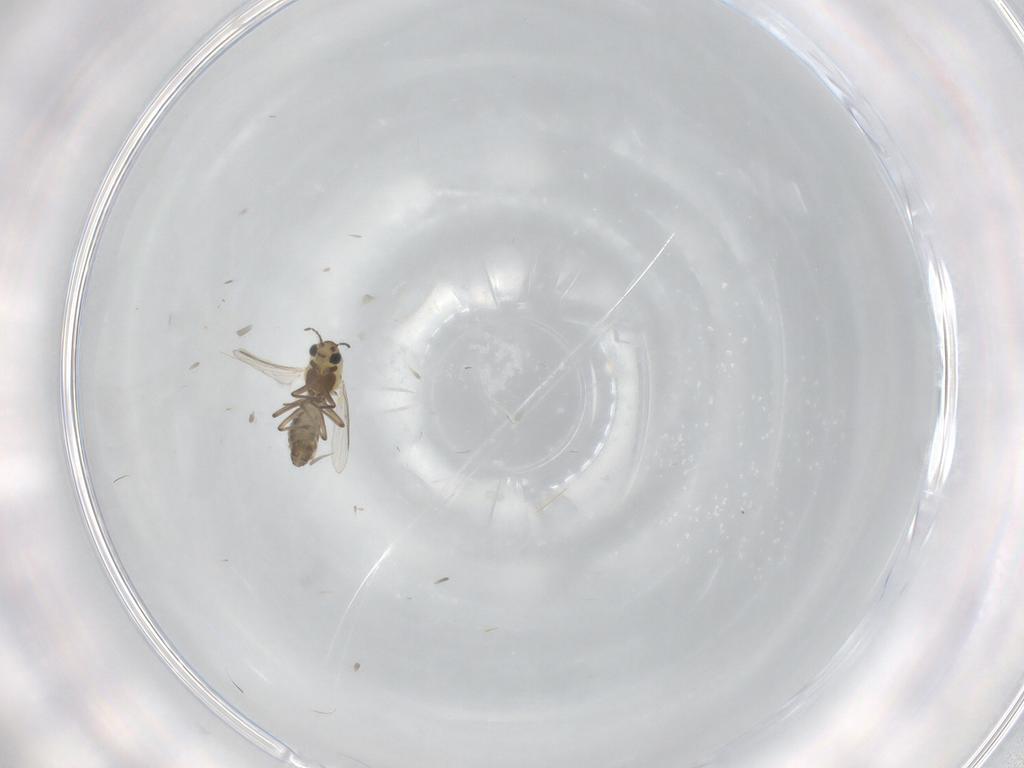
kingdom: Animalia
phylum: Arthropoda
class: Insecta
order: Diptera
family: Chironomidae
